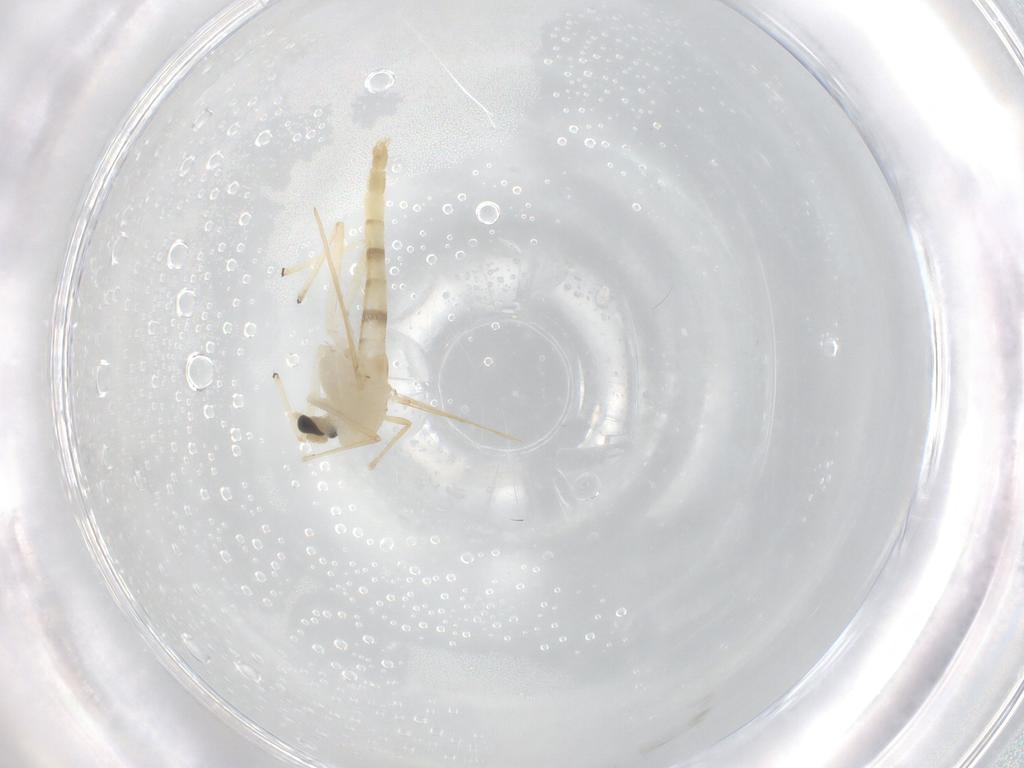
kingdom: Animalia
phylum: Arthropoda
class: Insecta
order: Diptera
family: Chironomidae
